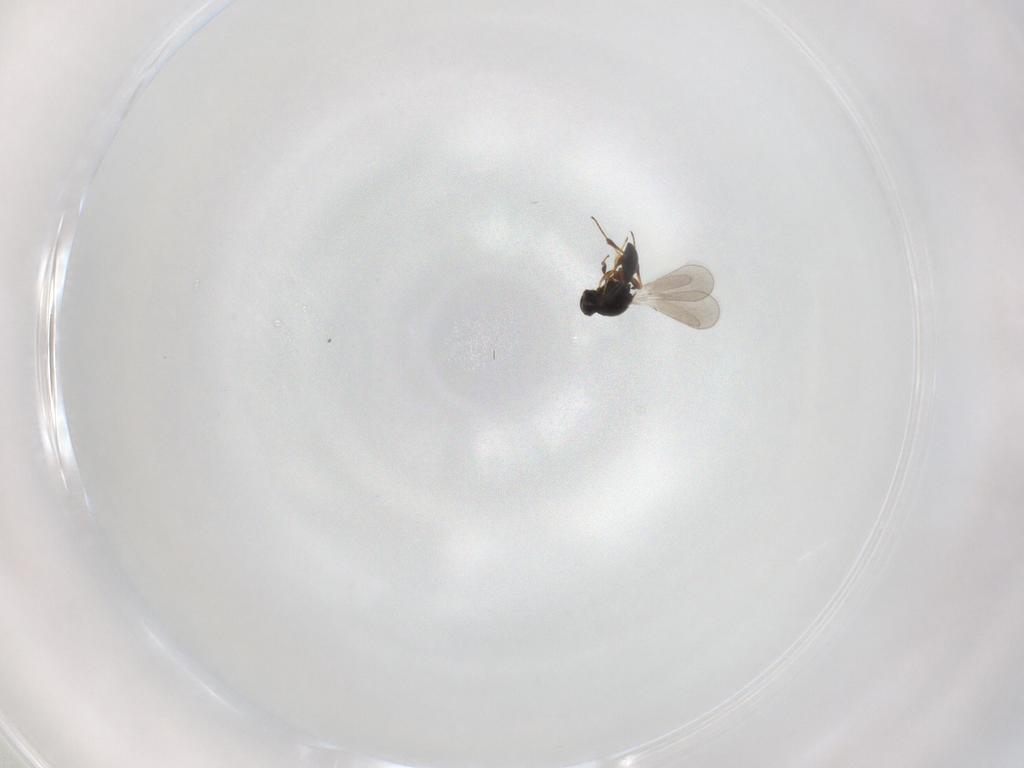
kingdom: Animalia
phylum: Arthropoda
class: Insecta
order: Hymenoptera
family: Platygastridae
